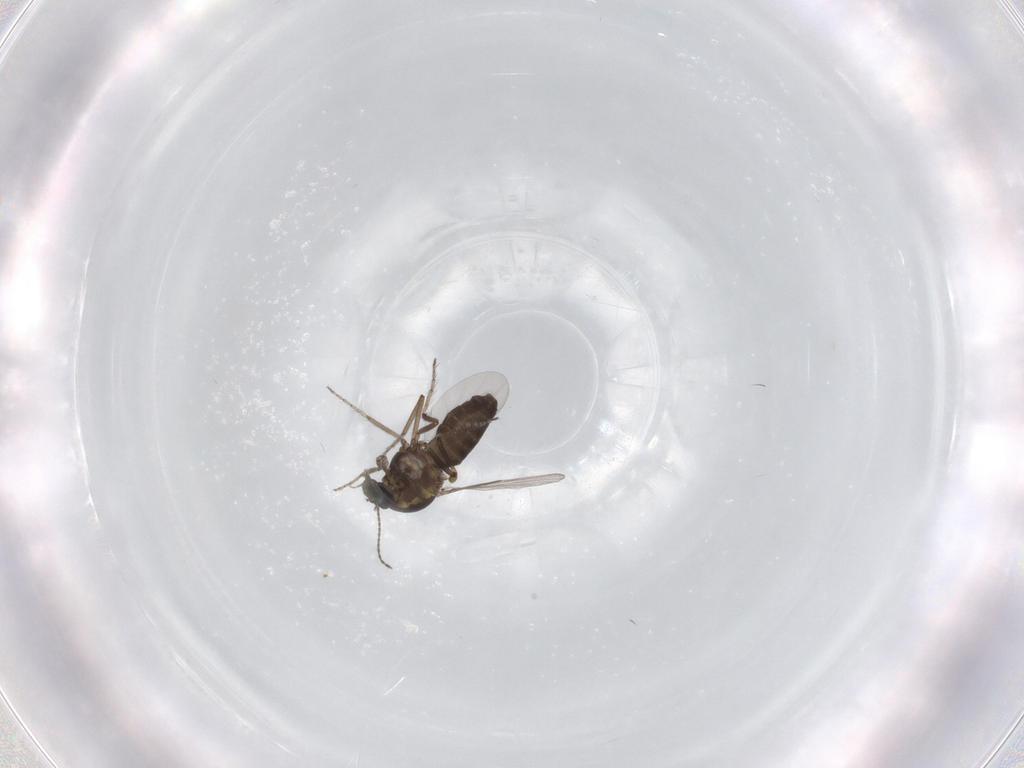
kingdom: Animalia
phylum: Arthropoda
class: Insecta
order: Diptera
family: Ceratopogonidae
